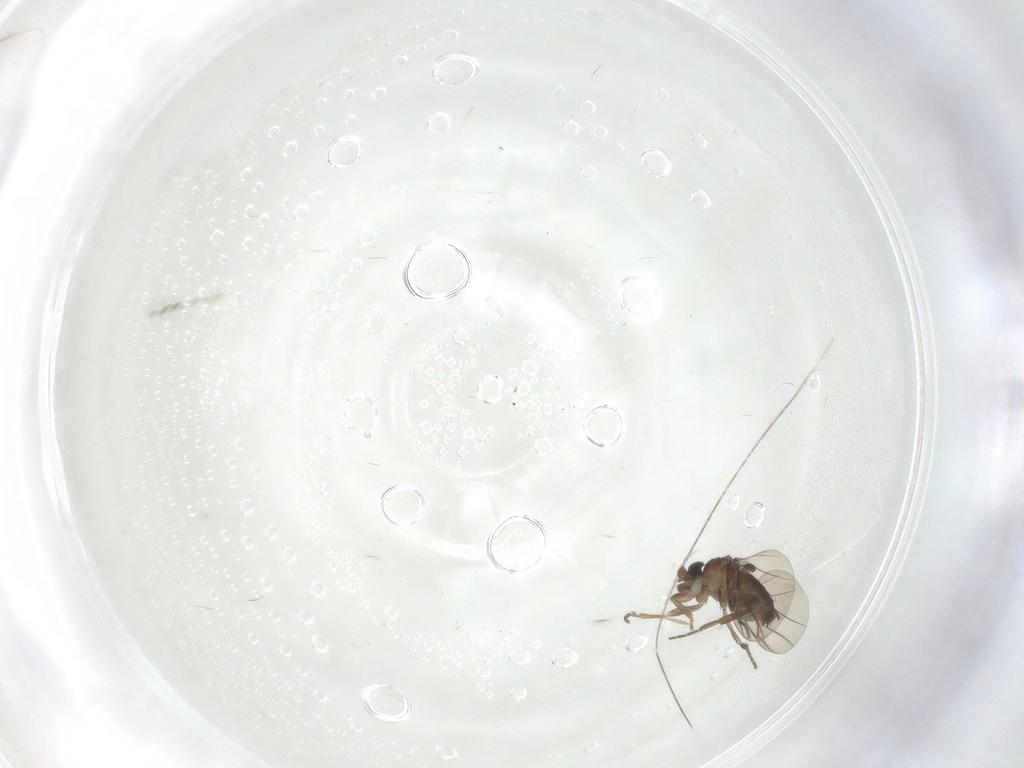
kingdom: Animalia
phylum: Arthropoda
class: Insecta
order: Diptera
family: Phoridae
